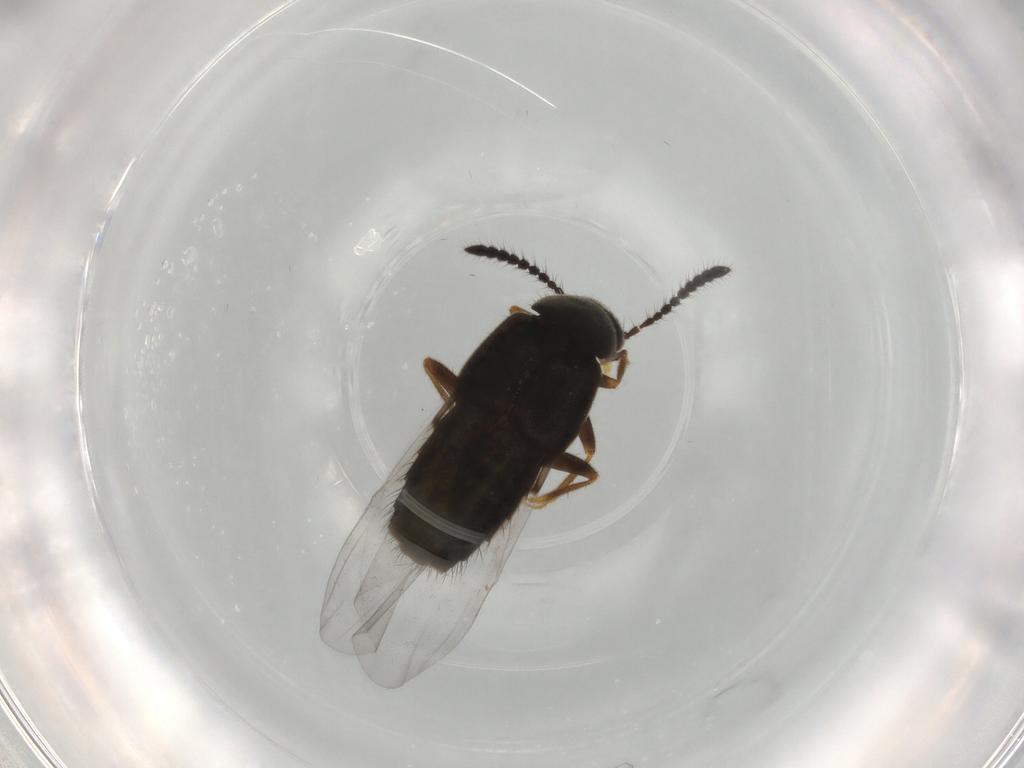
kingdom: Animalia
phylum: Arthropoda
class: Insecta
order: Coleoptera
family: Staphylinidae
